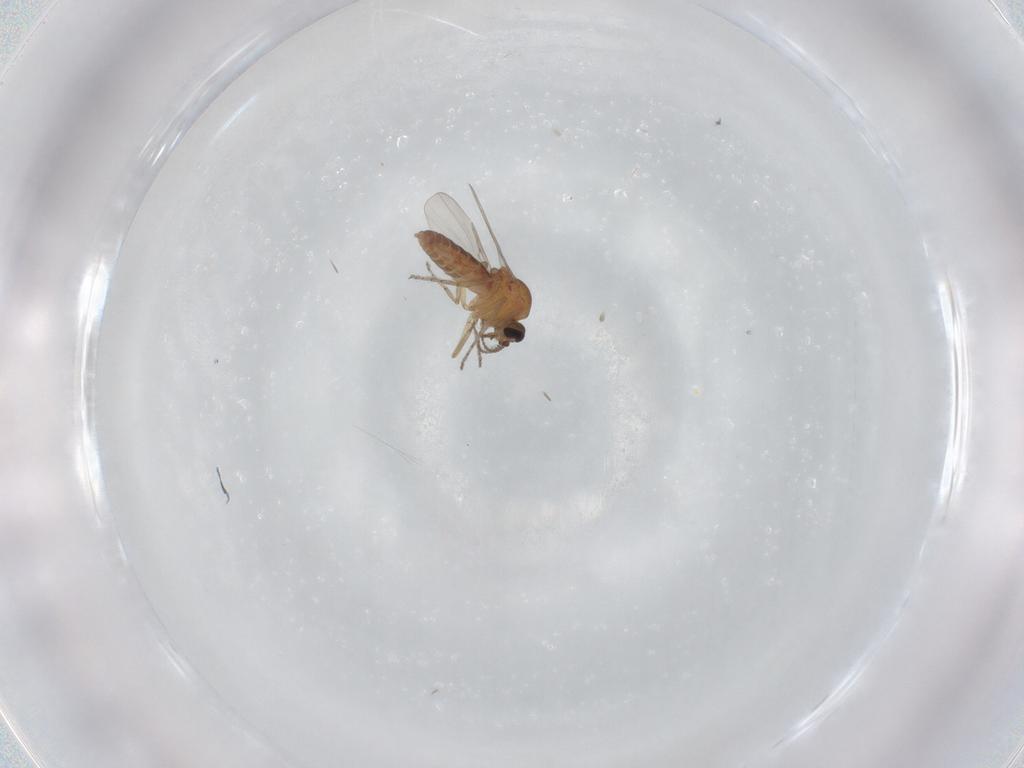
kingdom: Animalia
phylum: Arthropoda
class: Insecta
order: Diptera
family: Ceratopogonidae
